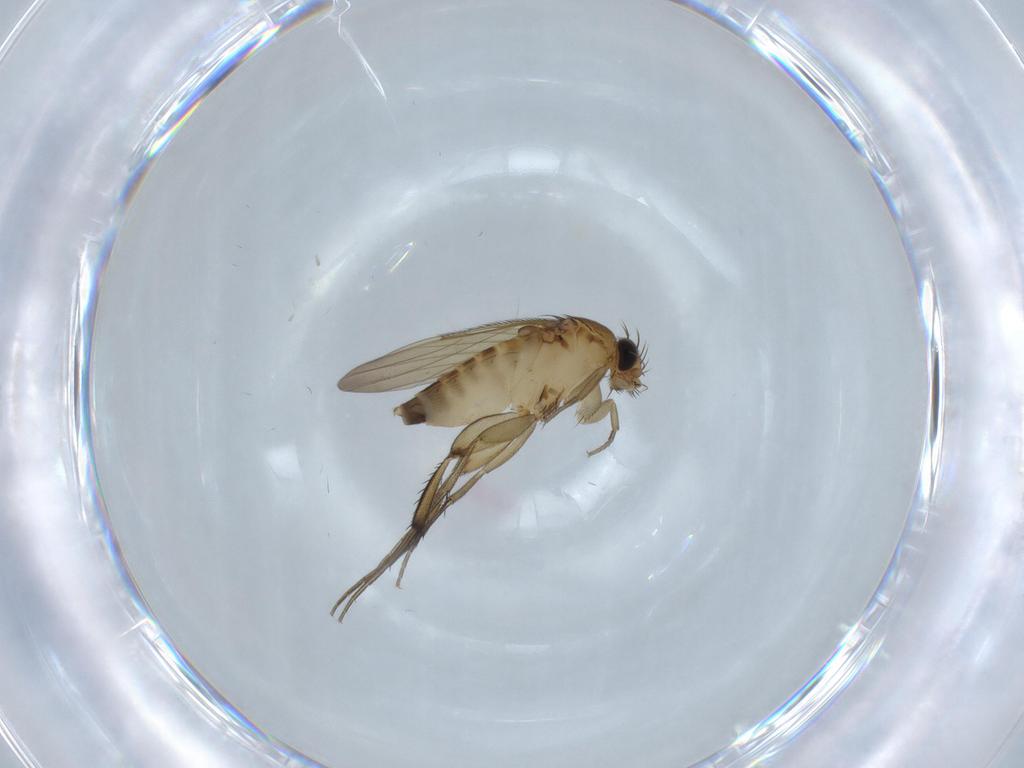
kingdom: Animalia
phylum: Arthropoda
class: Insecta
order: Diptera
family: Phoridae
